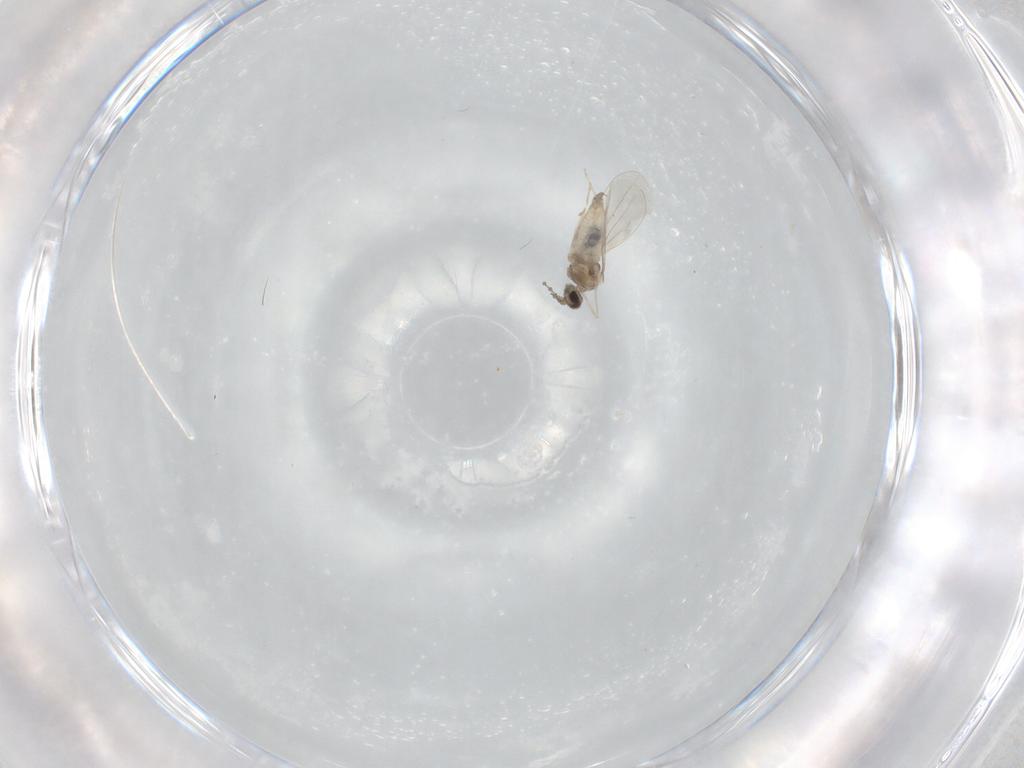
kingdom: Animalia
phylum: Arthropoda
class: Insecta
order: Diptera
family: Cecidomyiidae
